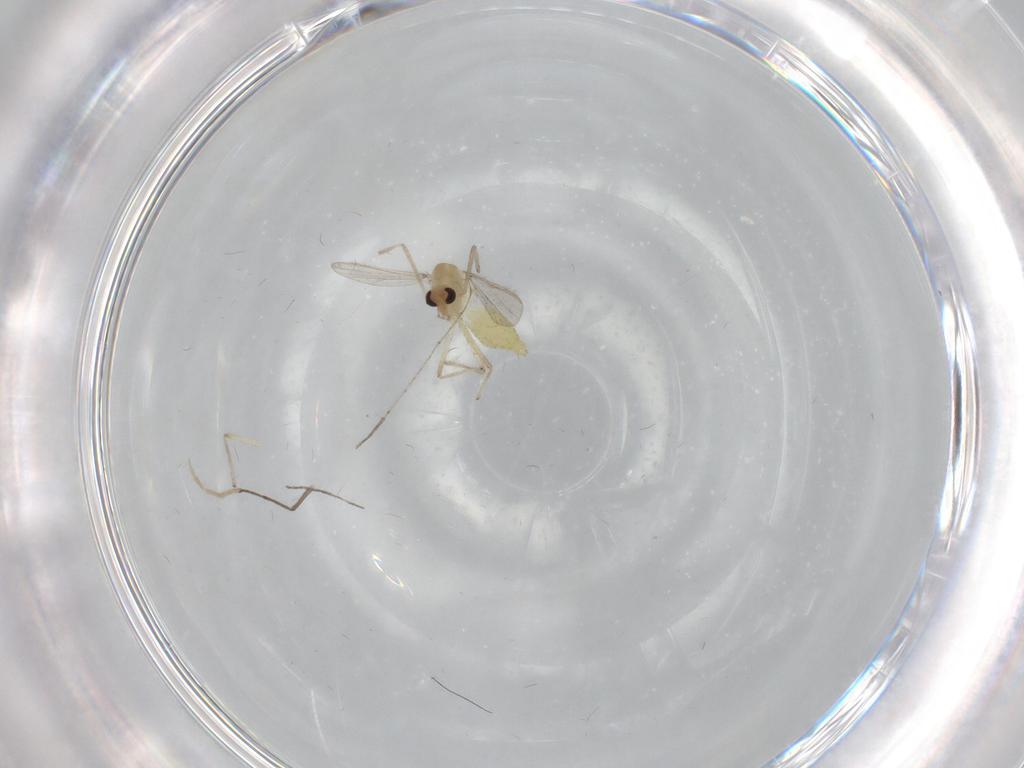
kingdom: Animalia
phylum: Arthropoda
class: Insecta
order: Diptera
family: Chironomidae
